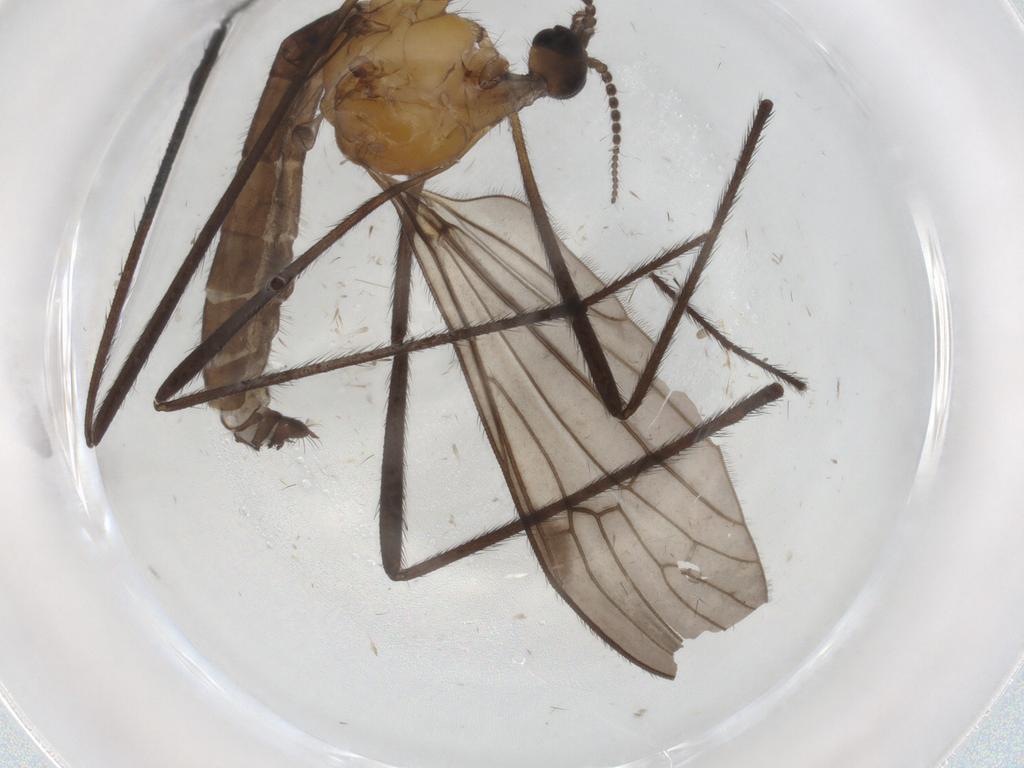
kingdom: Animalia
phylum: Arthropoda
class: Insecta
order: Diptera
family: Limoniidae
